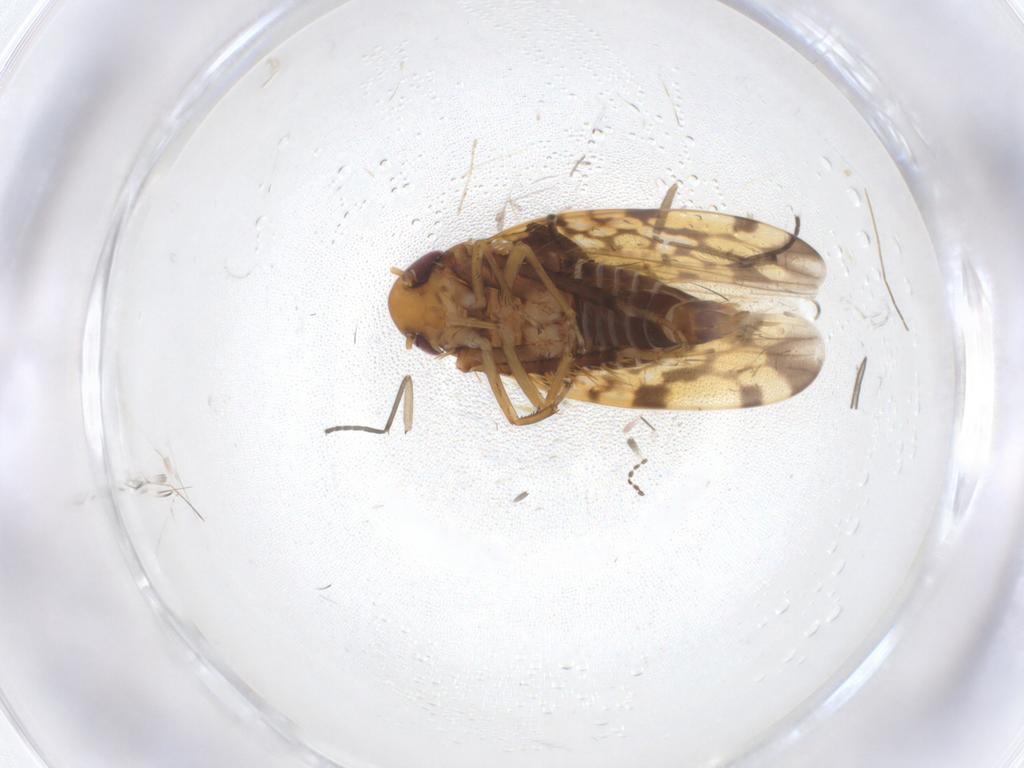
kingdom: Animalia
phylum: Arthropoda
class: Insecta
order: Hemiptera
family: Cicadellidae
